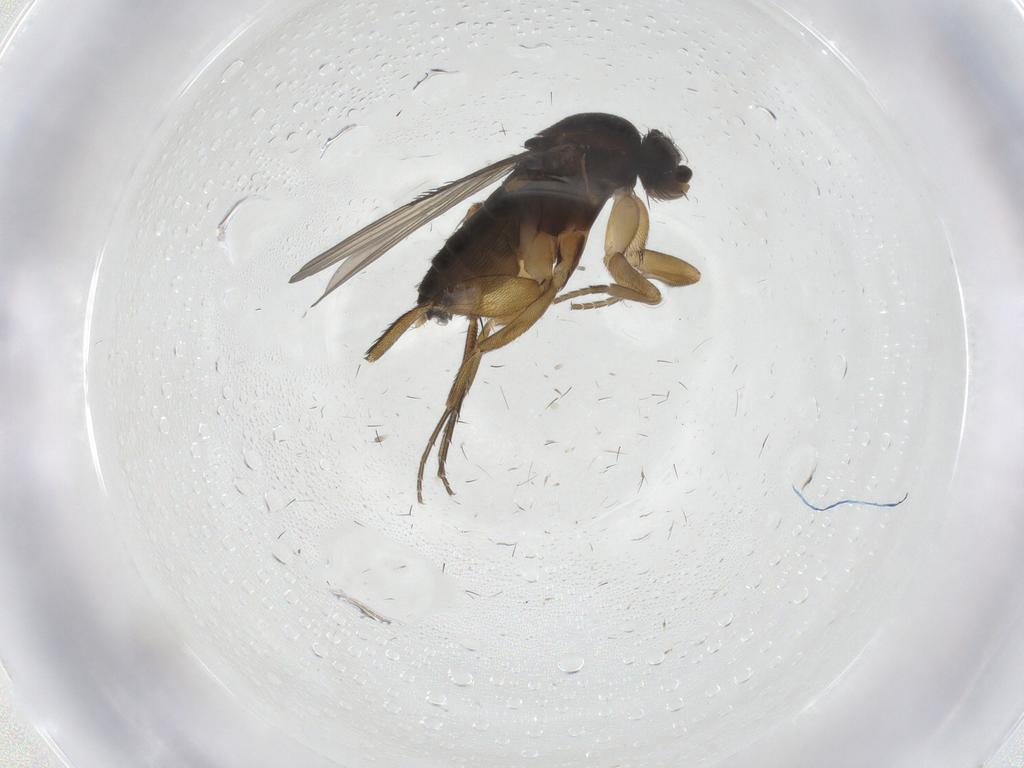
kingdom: Animalia
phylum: Arthropoda
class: Insecta
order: Diptera
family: Phoridae
